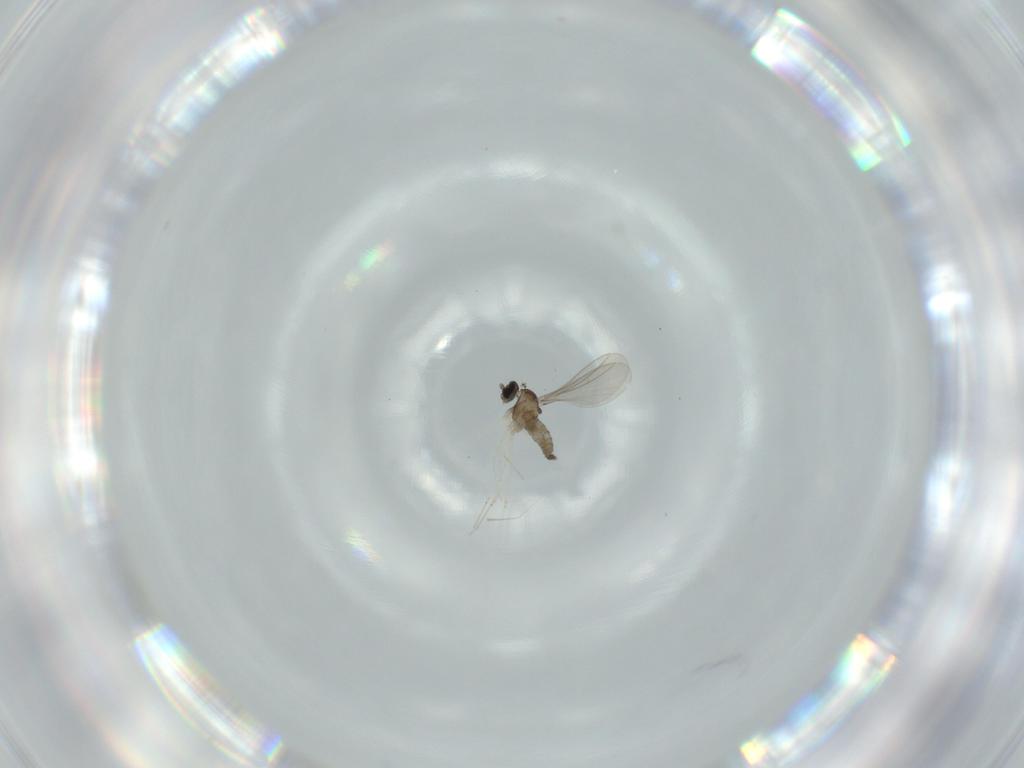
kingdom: Animalia
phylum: Arthropoda
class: Insecta
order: Diptera
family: Cecidomyiidae
